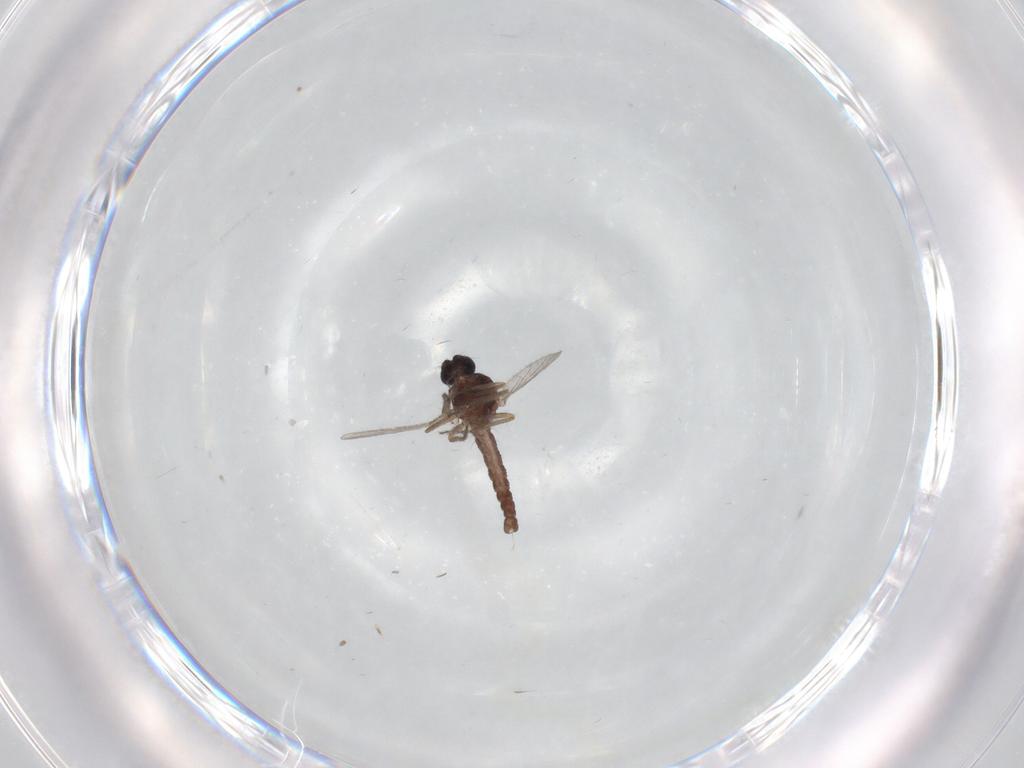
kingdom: Animalia
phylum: Arthropoda
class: Insecta
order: Diptera
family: Ceratopogonidae
